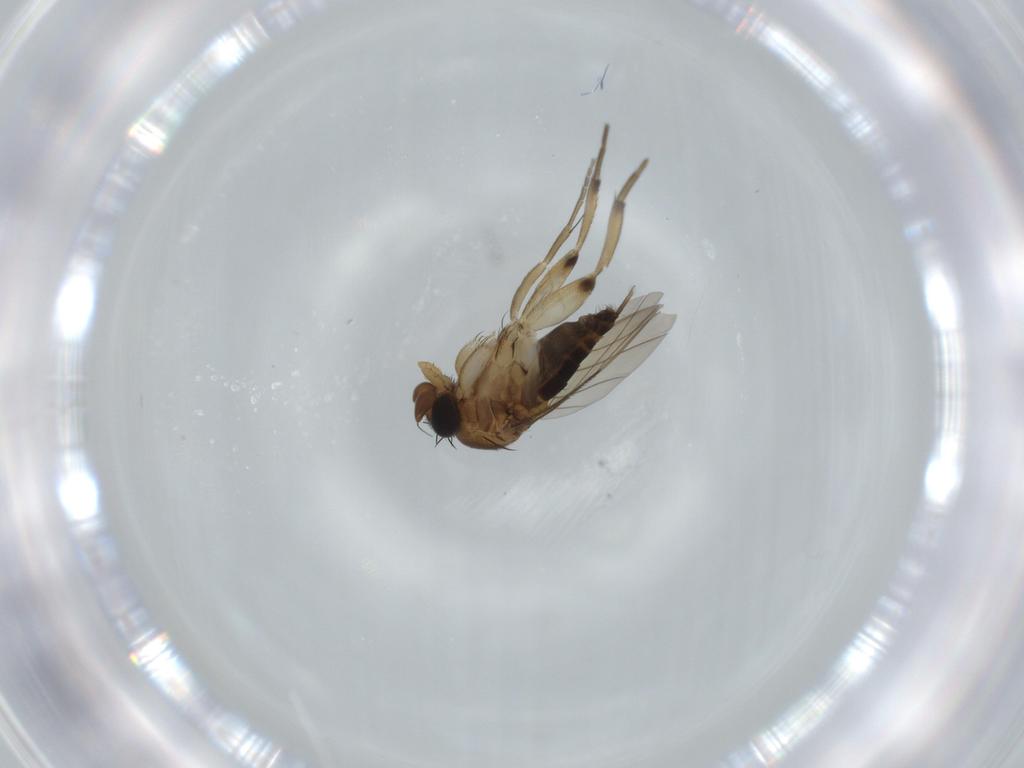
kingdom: Animalia
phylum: Arthropoda
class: Insecta
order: Diptera
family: Phoridae
